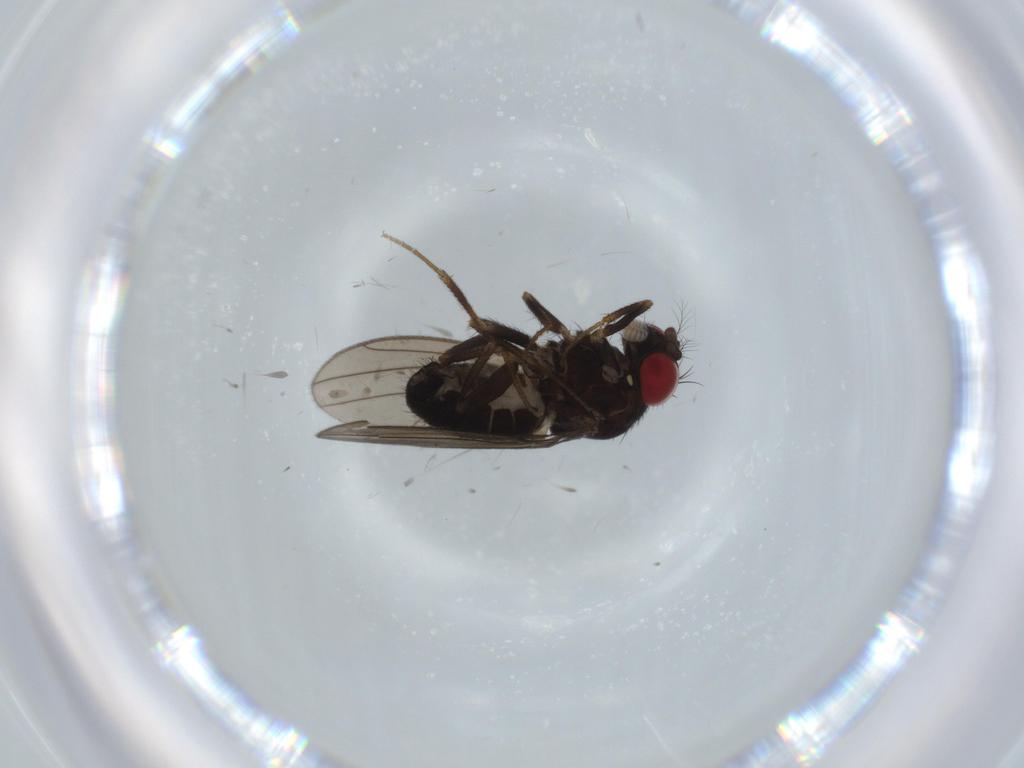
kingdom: Animalia
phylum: Arthropoda
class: Insecta
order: Diptera
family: Drosophilidae
